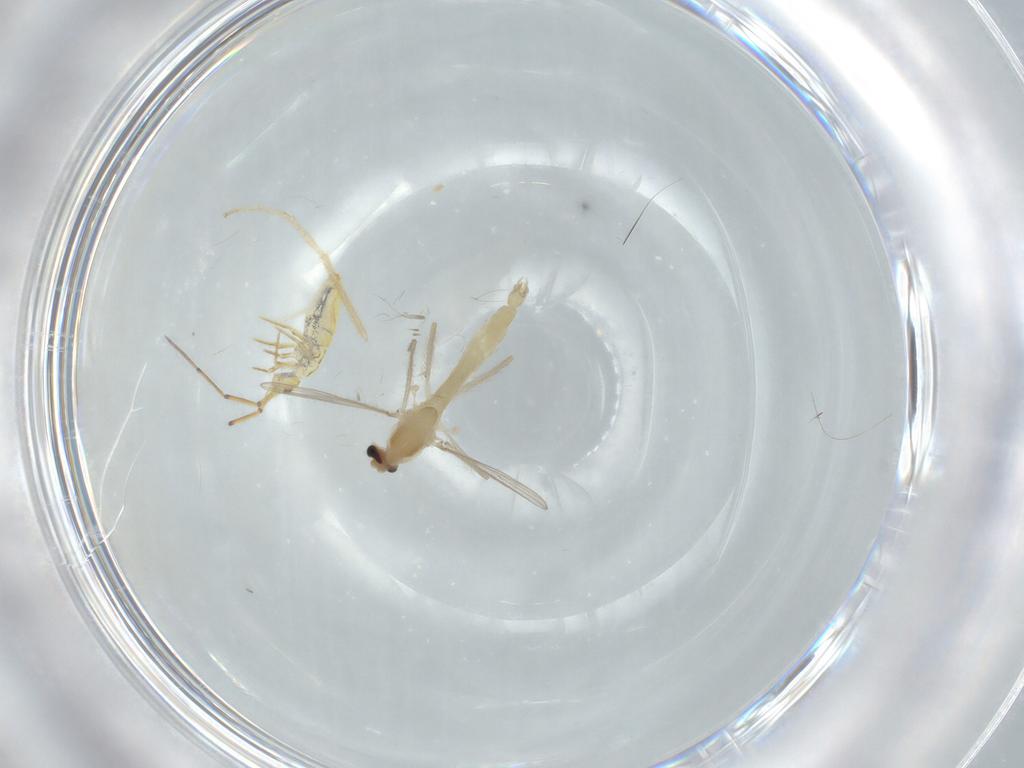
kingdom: Animalia
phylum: Arthropoda
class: Insecta
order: Diptera
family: Chironomidae
